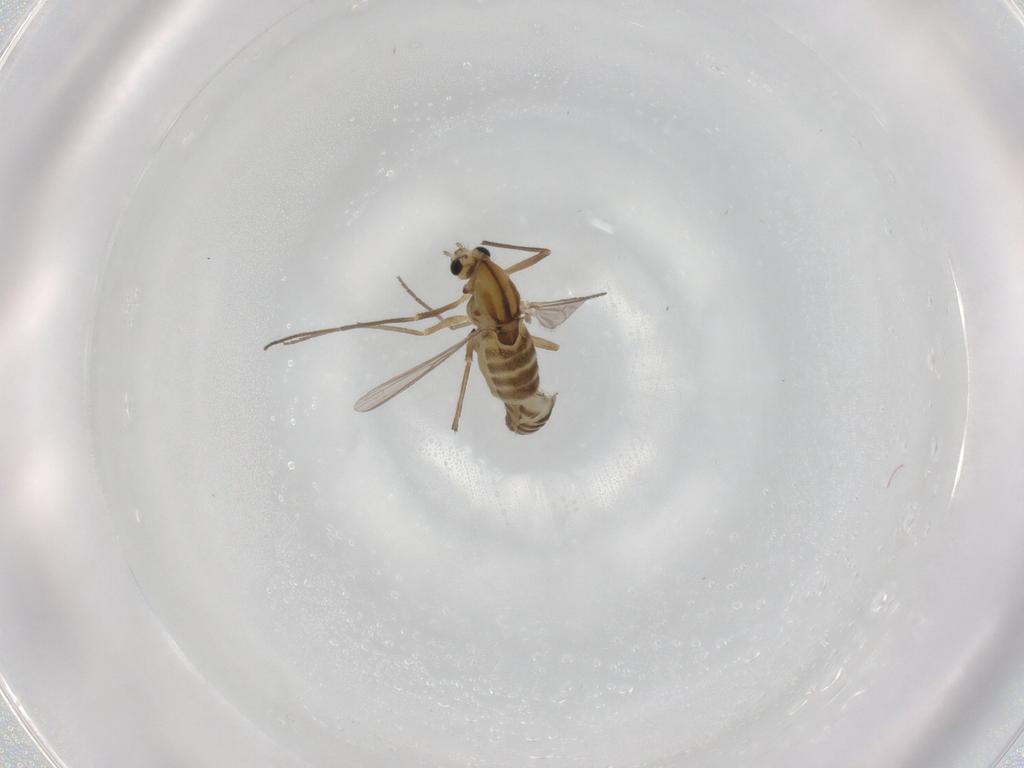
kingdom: Animalia
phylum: Arthropoda
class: Insecta
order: Diptera
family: Chironomidae
